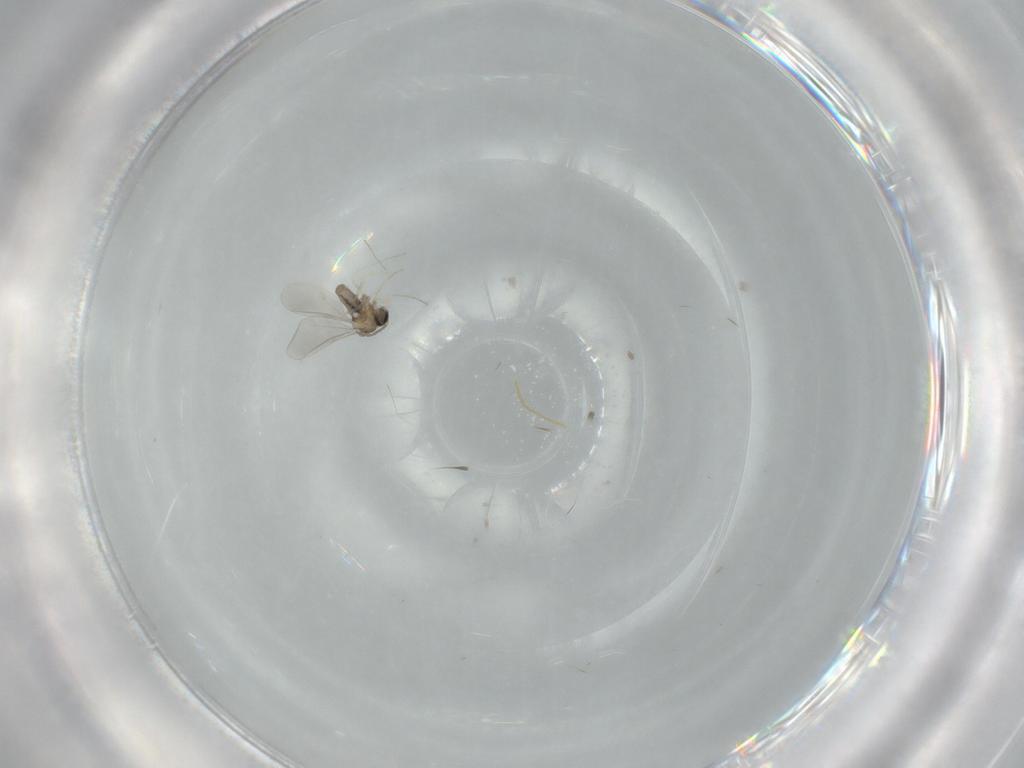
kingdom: Animalia
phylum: Arthropoda
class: Insecta
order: Diptera
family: Cecidomyiidae
